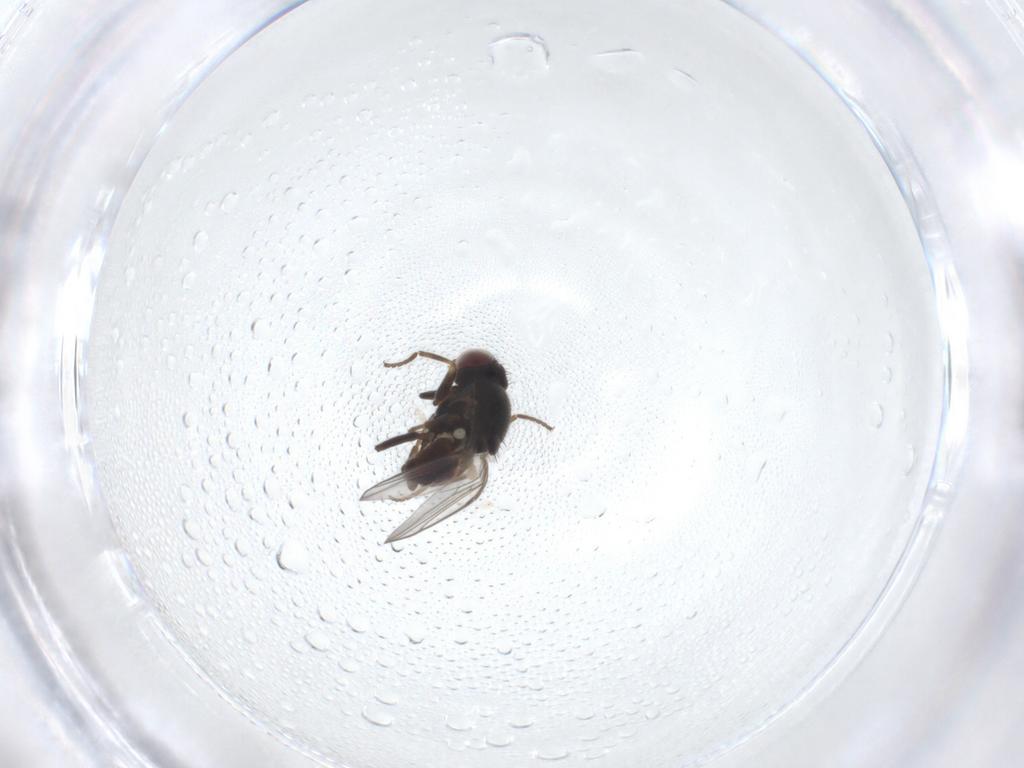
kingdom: Animalia
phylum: Arthropoda
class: Insecta
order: Diptera
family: Chloropidae
